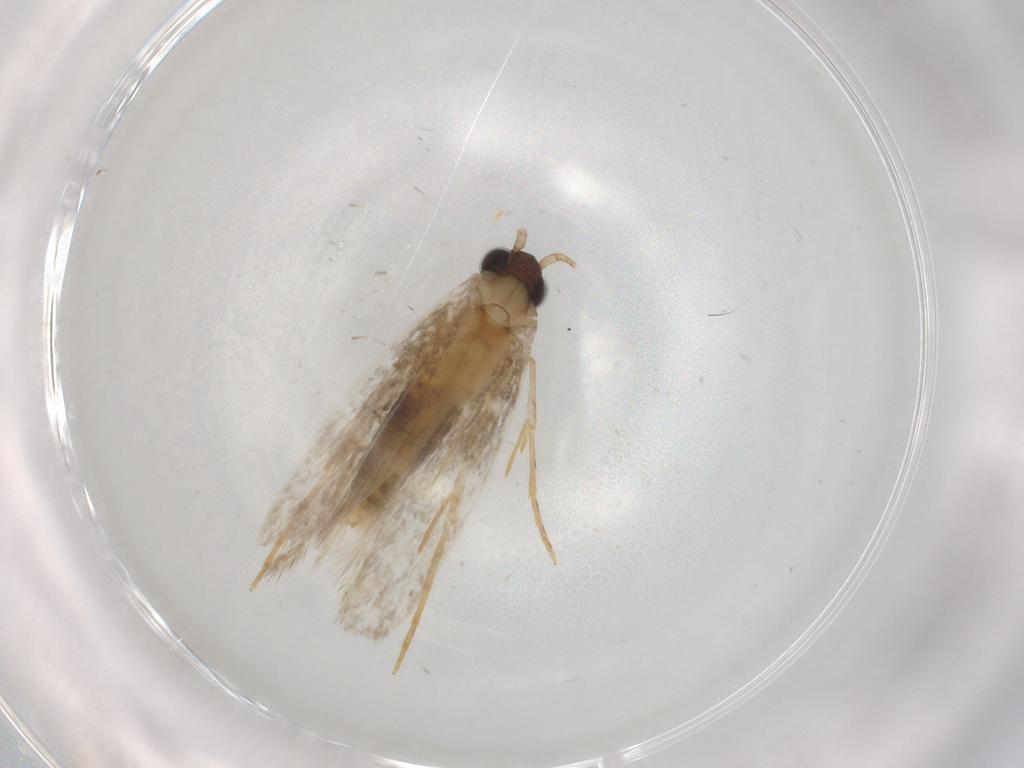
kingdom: Animalia
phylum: Arthropoda
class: Insecta
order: Lepidoptera
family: Tineidae
